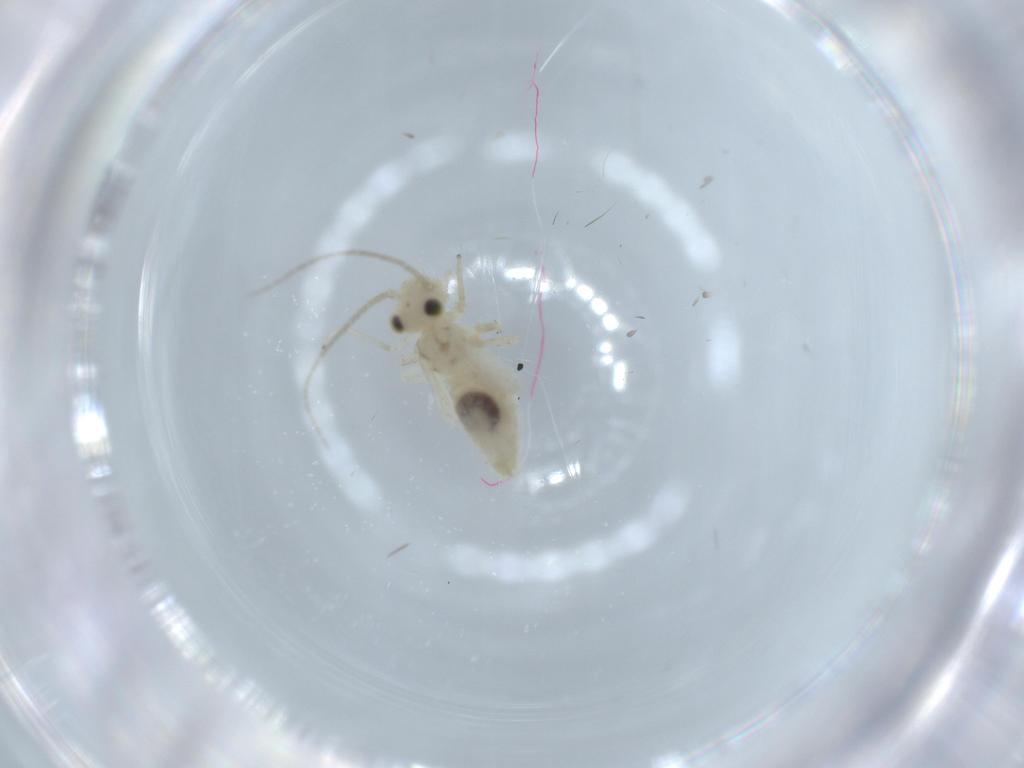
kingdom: Animalia
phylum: Arthropoda
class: Insecta
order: Psocodea
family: Caeciliusidae
